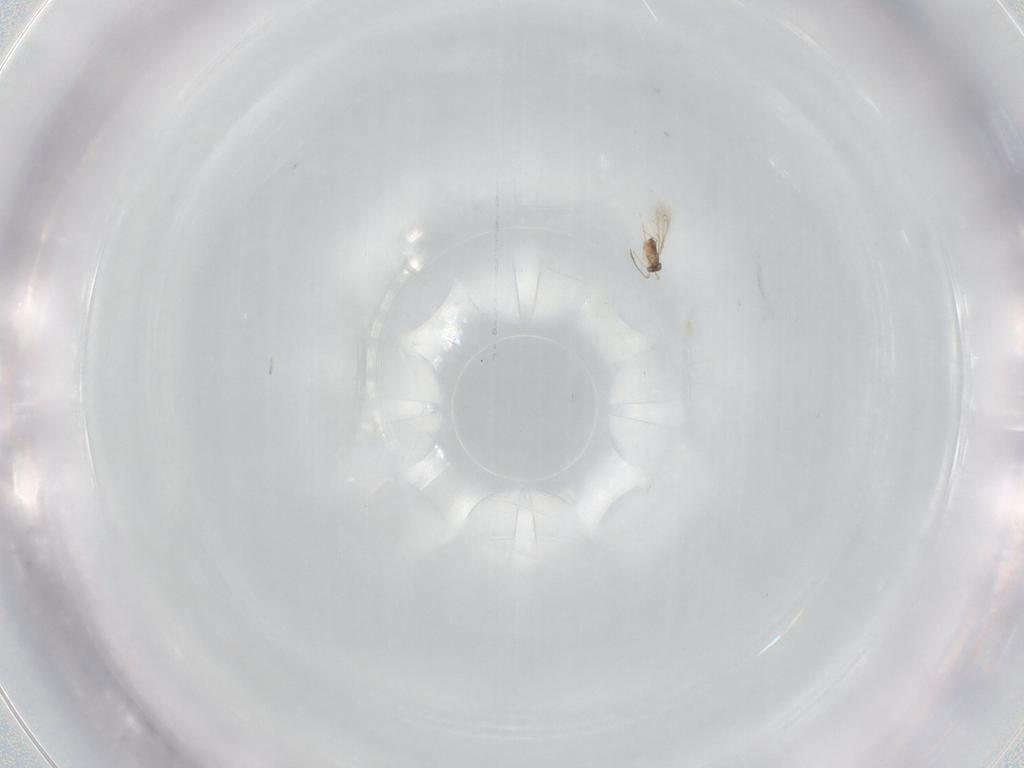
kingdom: Animalia
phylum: Arthropoda
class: Insecta
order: Hymenoptera
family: Mymaridae
